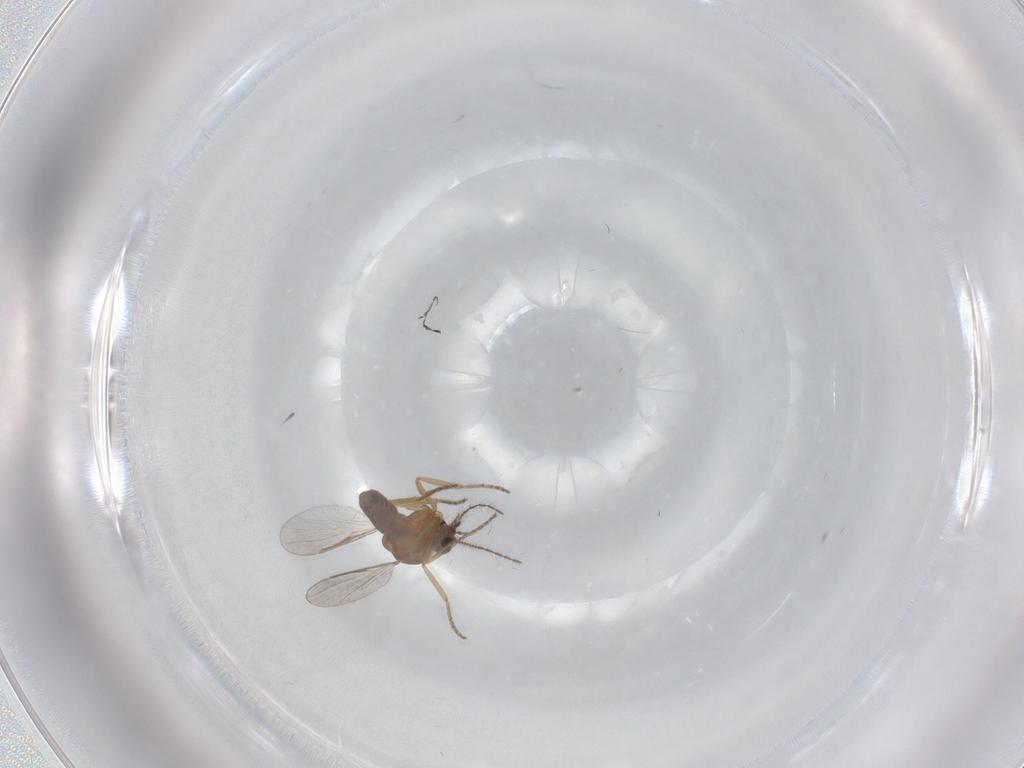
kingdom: Animalia
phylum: Arthropoda
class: Insecta
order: Diptera
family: Ceratopogonidae
